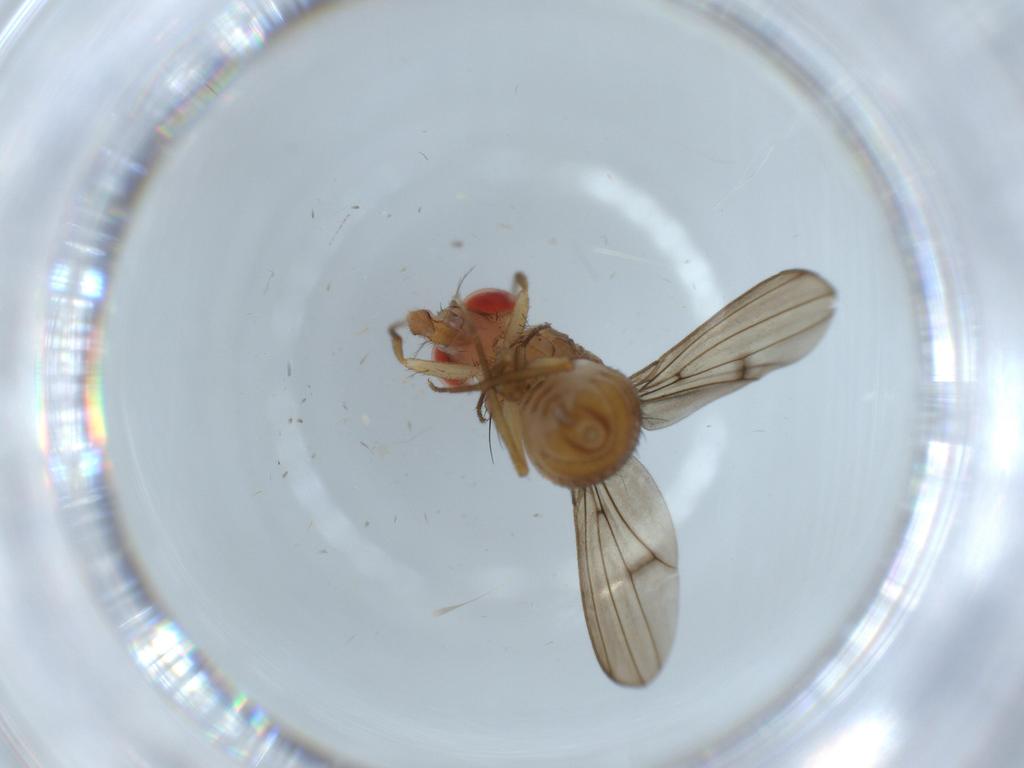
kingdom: Animalia
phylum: Arthropoda
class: Insecta
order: Diptera
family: Drosophilidae
